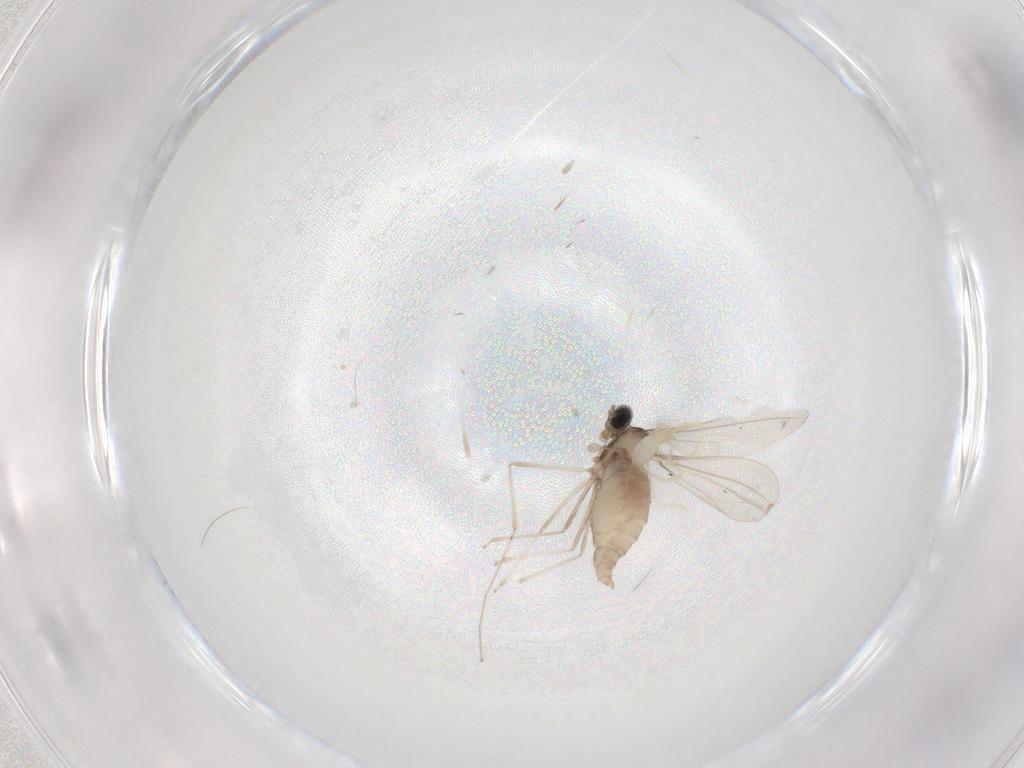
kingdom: Animalia
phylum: Arthropoda
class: Insecta
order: Diptera
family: Cecidomyiidae
